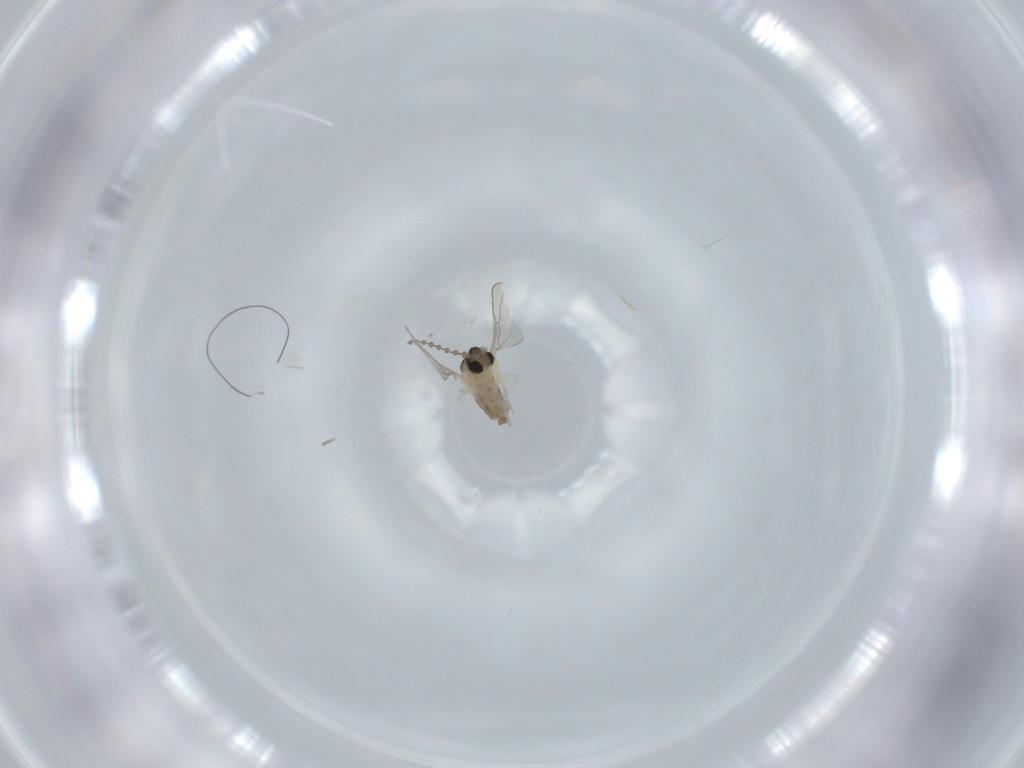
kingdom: Animalia
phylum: Arthropoda
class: Insecta
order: Diptera
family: Cecidomyiidae
